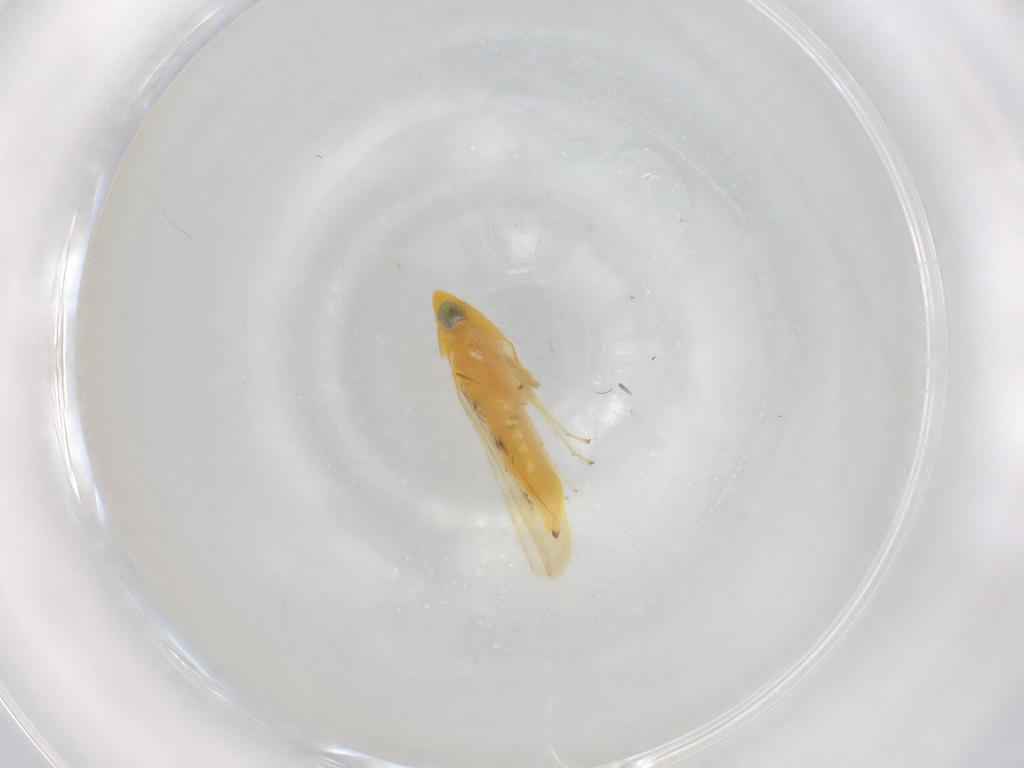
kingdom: Animalia
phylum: Arthropoda
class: Insecta
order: Hemiptera
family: Cicadellidae
